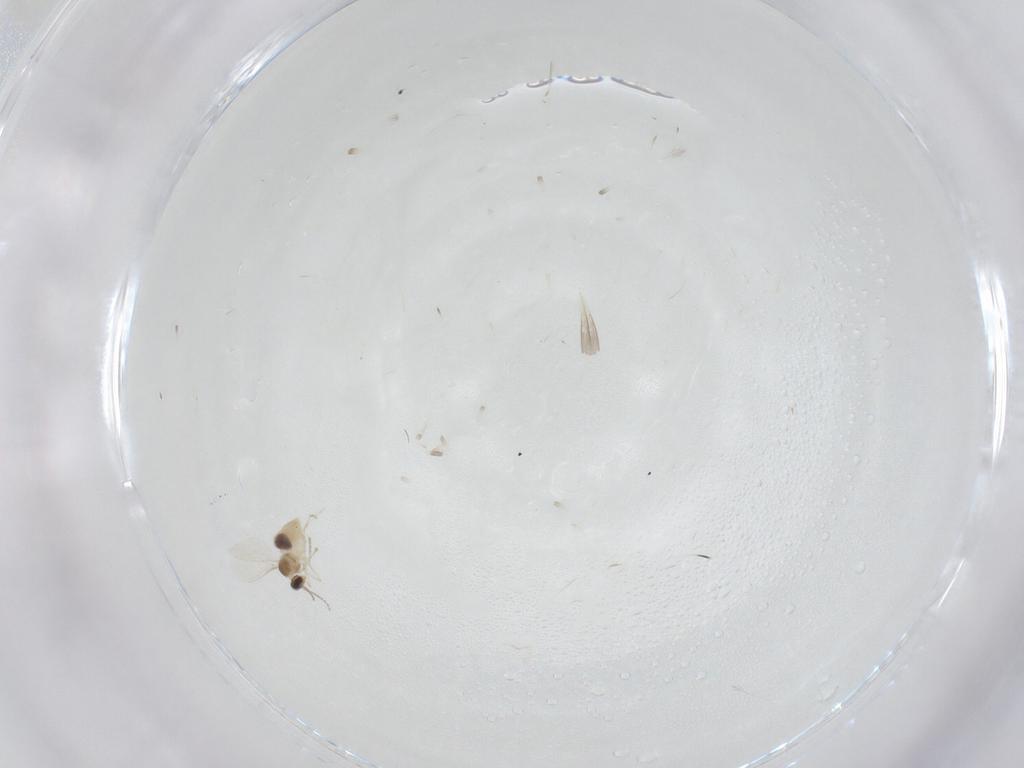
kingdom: Animalia
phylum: Arthropoda
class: Insecta
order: Diptera
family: Cecidomyiidae
